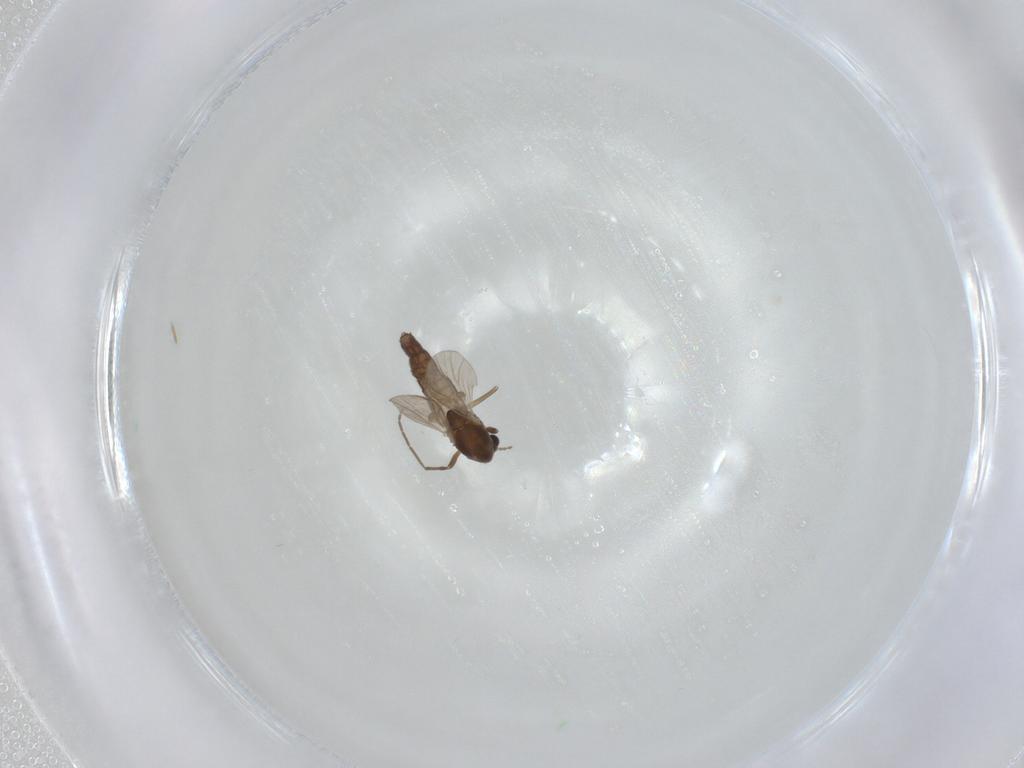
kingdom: Animalia
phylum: Arthropoda
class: Insecta
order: Diptera
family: Chironomidae
